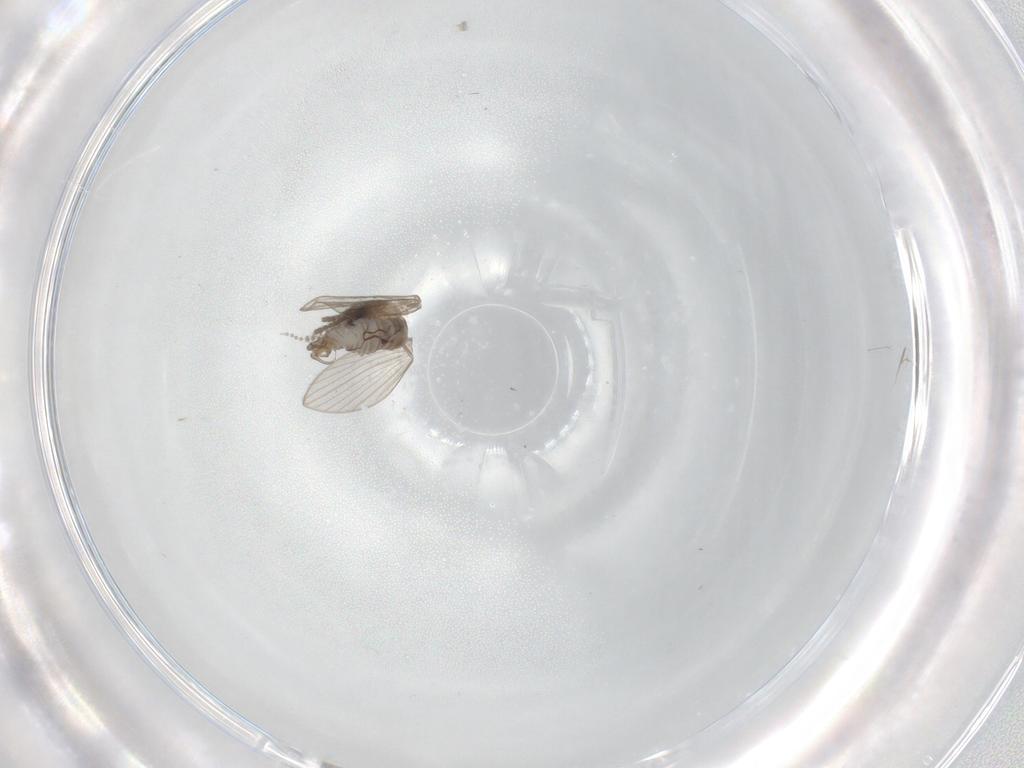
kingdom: Animalia
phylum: Arthropoda
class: Insecta
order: Diptera
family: Psychodidae
